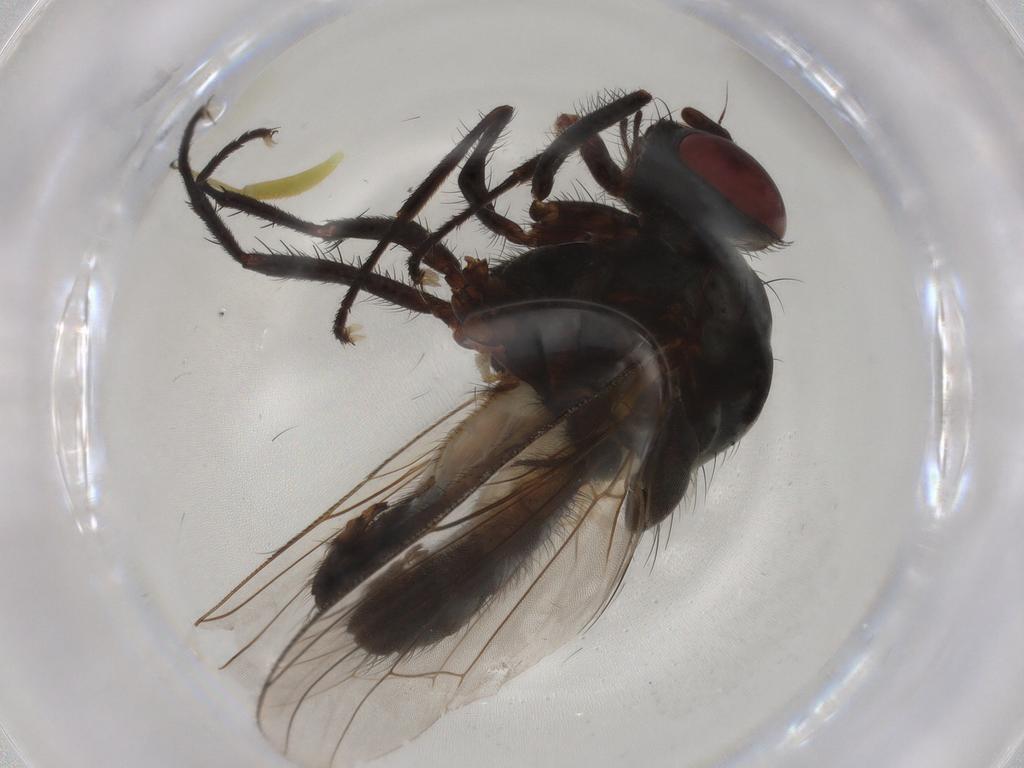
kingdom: Animalia
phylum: Arthropoda
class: Insecta
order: Diptera
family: Anthomyiidae
